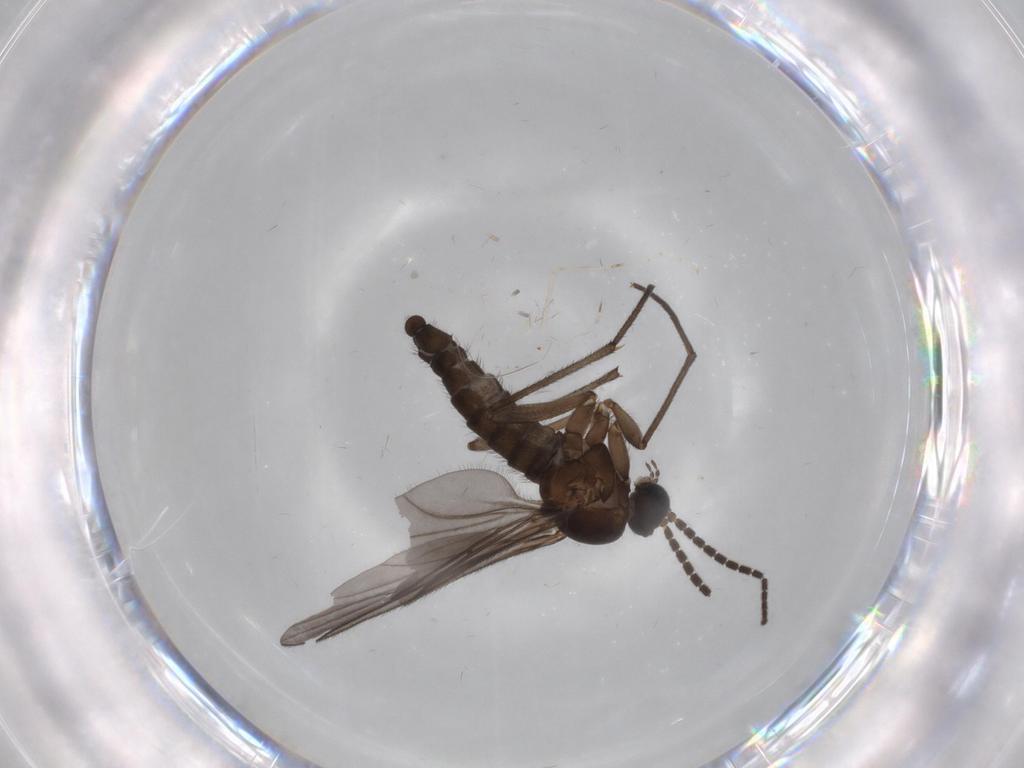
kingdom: Animalia
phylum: Arthropoda
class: Insecta
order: Diptera
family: Sciaridae
